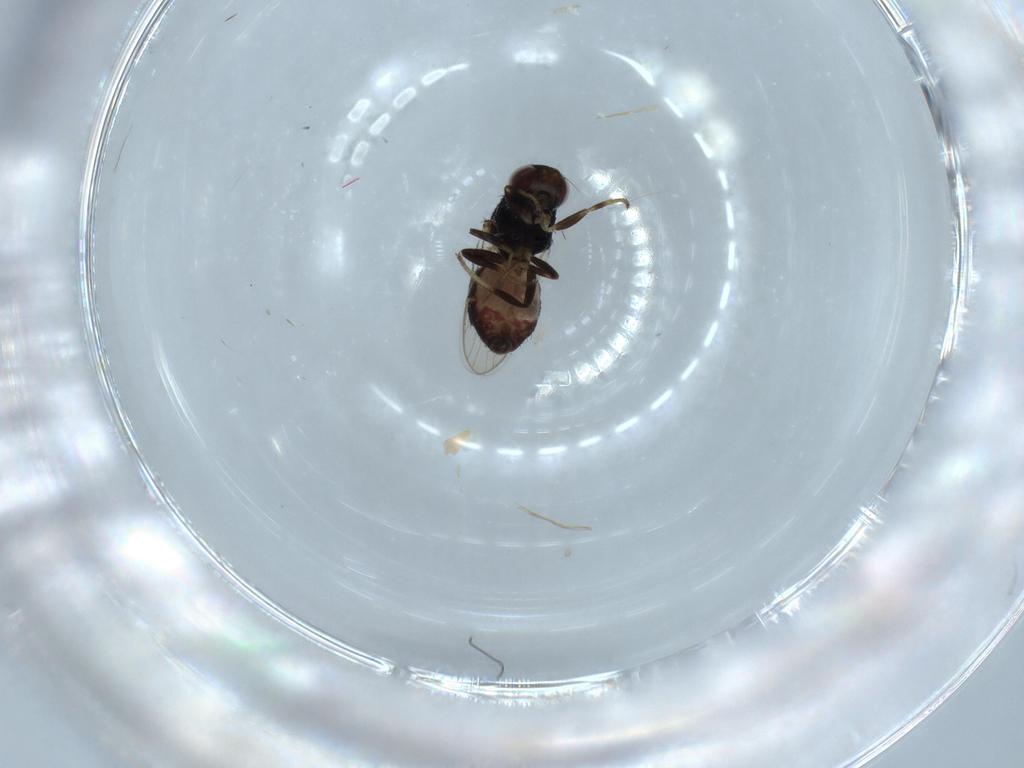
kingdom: Animalia
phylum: Arthropoda
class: Insecta
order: Diptera
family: Chloropidae
